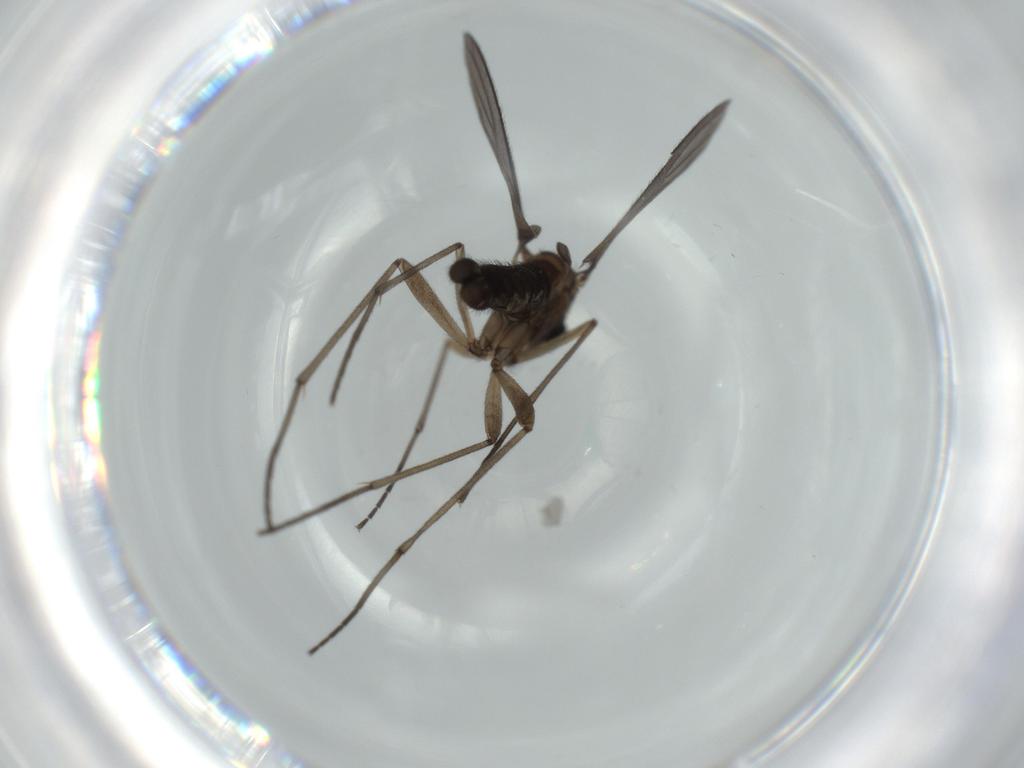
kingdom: Animalia
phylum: Arthropoda
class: Insecta
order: Diptera
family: Sciaridae
